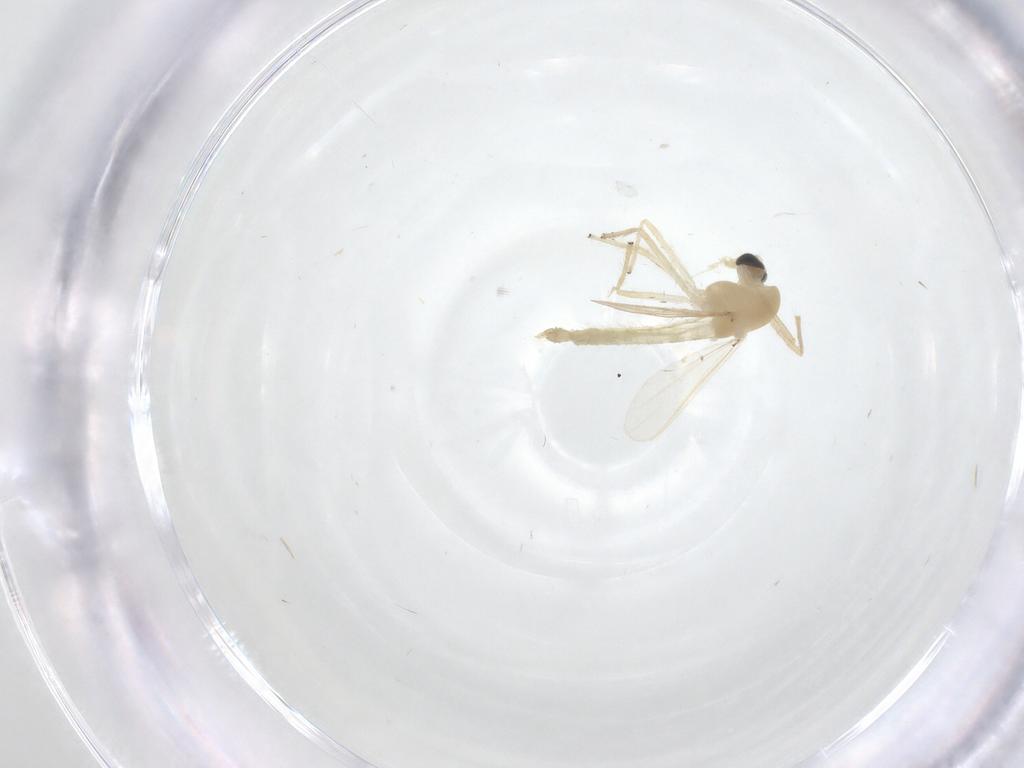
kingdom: Animalia
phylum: Arthropoda
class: Insecta
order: Diptera
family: Chironomidae
